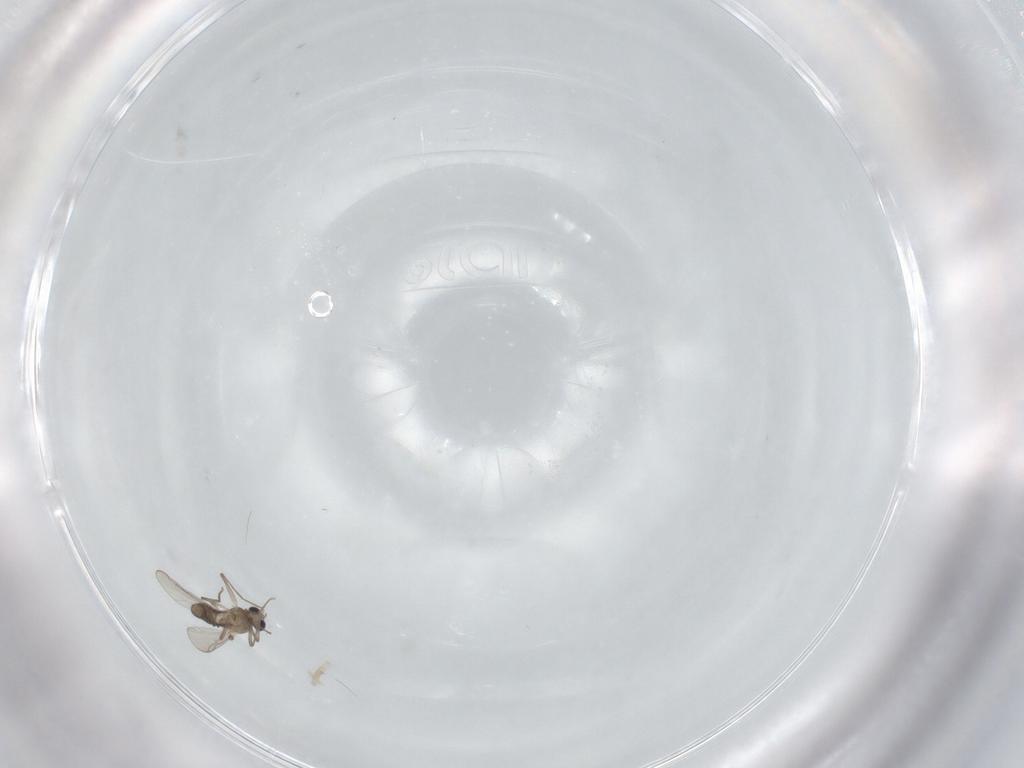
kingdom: Animalia
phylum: Arthropoda
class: Insecta
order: Diptera
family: Cecidomyiidae
